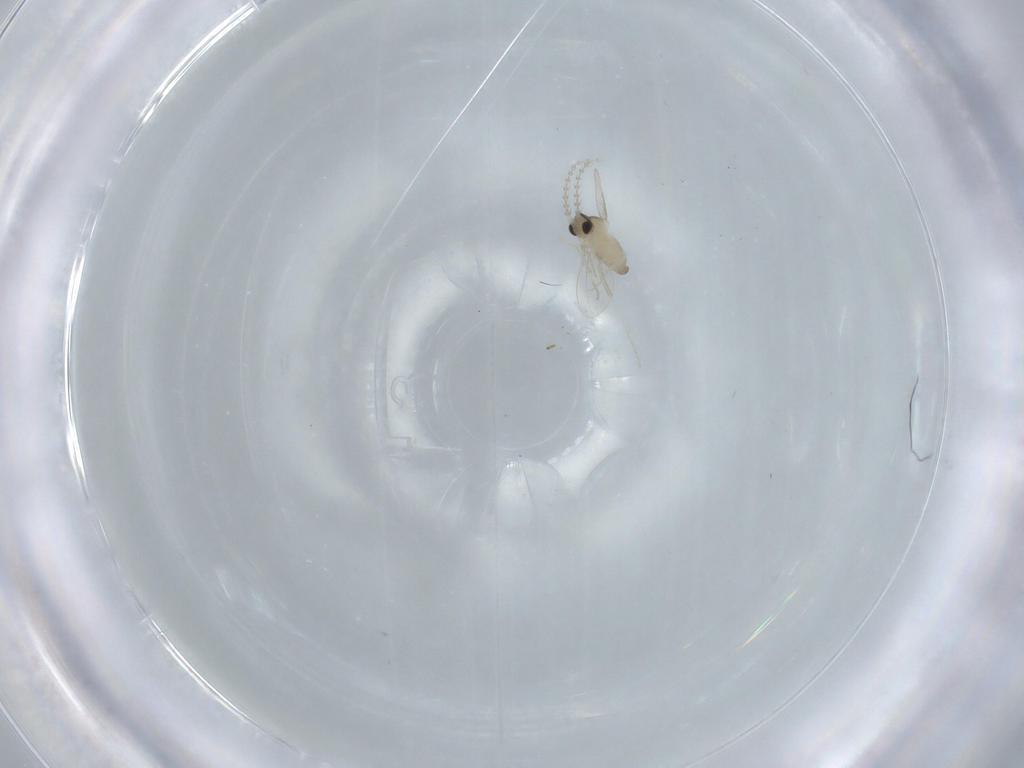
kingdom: Animalia
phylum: Arthropoda
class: Insecta
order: Diptera
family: Cecidomyiidae
